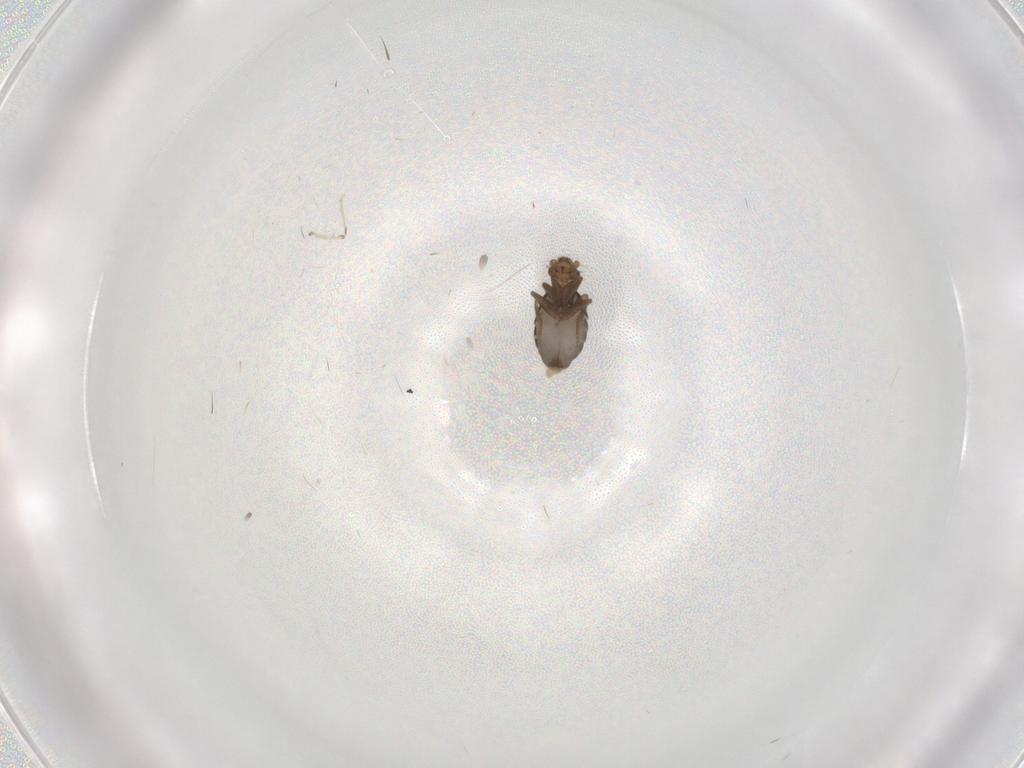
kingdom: Animalia
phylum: Arthropoda
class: Insecta
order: Diptera
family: Phoridae
